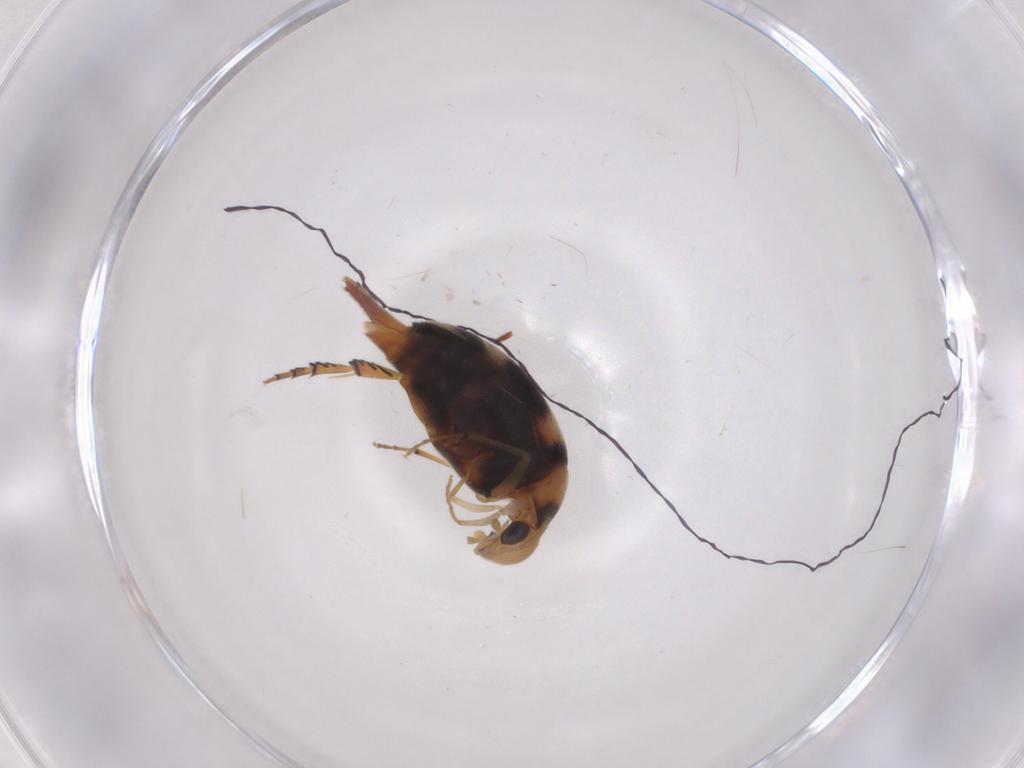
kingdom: Animalia
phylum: Arthropoda
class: Insecta
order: Coleoptera
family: Mordellidae
